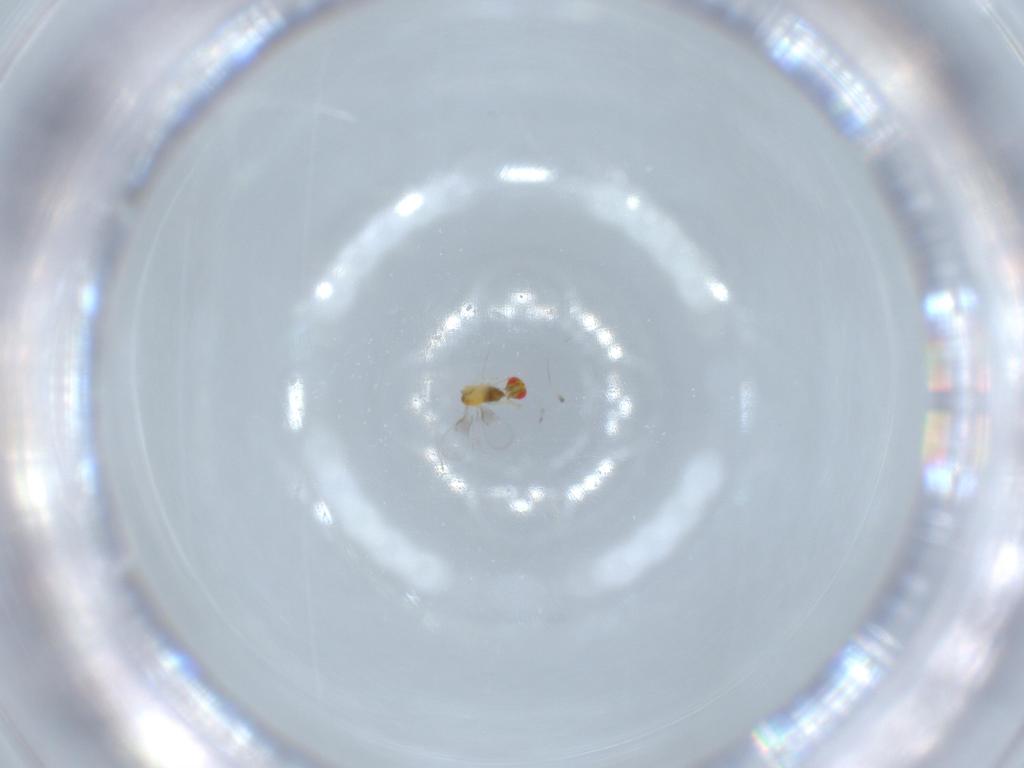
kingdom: Animalia
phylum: Arthropoda
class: Insecta
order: Hymenoptera
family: Trichogrammatidae
